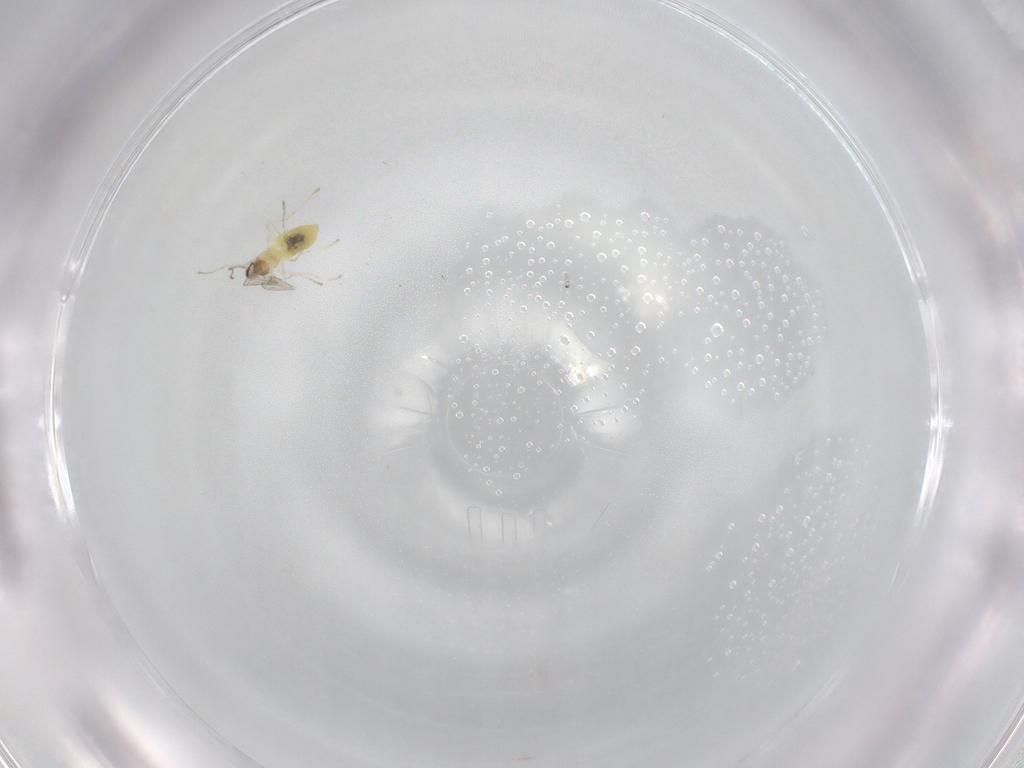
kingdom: Animalia
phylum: Arthropoda
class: Insecta
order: Diptera
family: Cecidomyiidae
